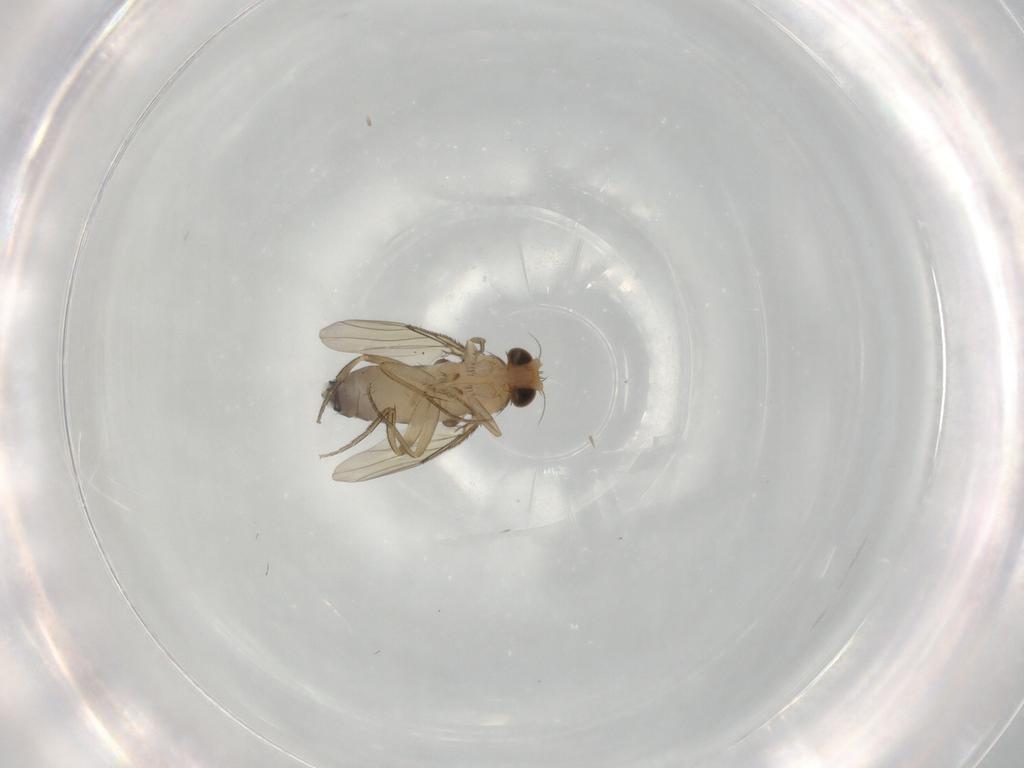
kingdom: Animalia
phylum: Arthropoda
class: Insecta
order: Diptera
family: Phoridae
